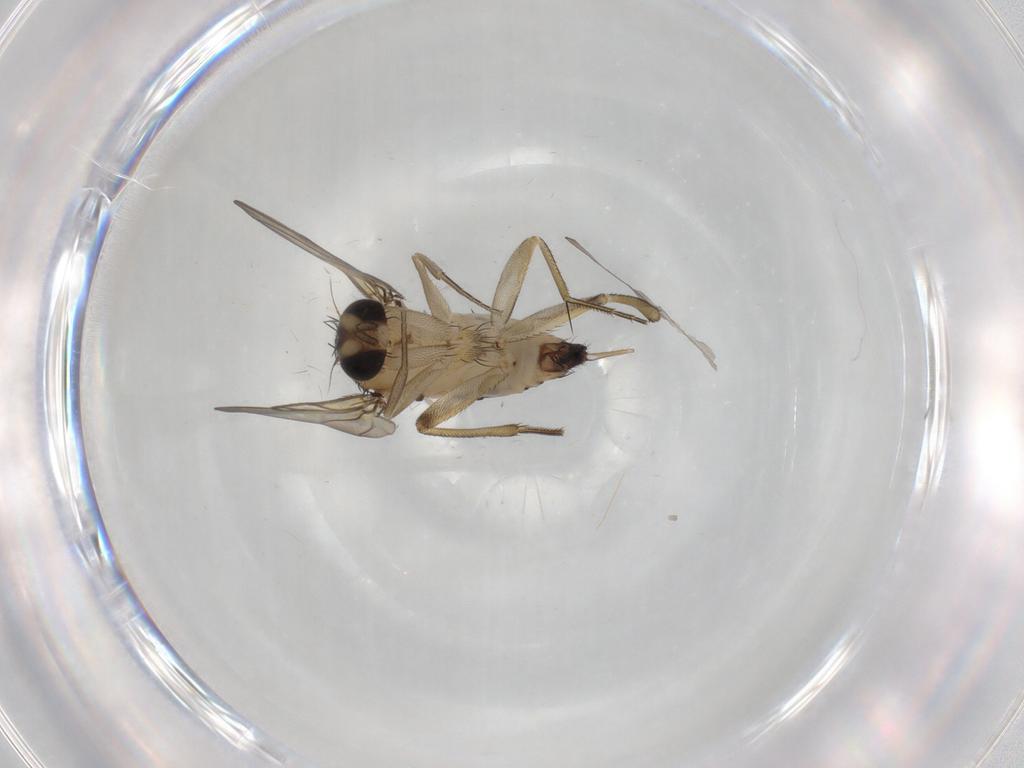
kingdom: Animalia
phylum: Arthropoda
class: Insecta
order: Diptera
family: Phoridae
